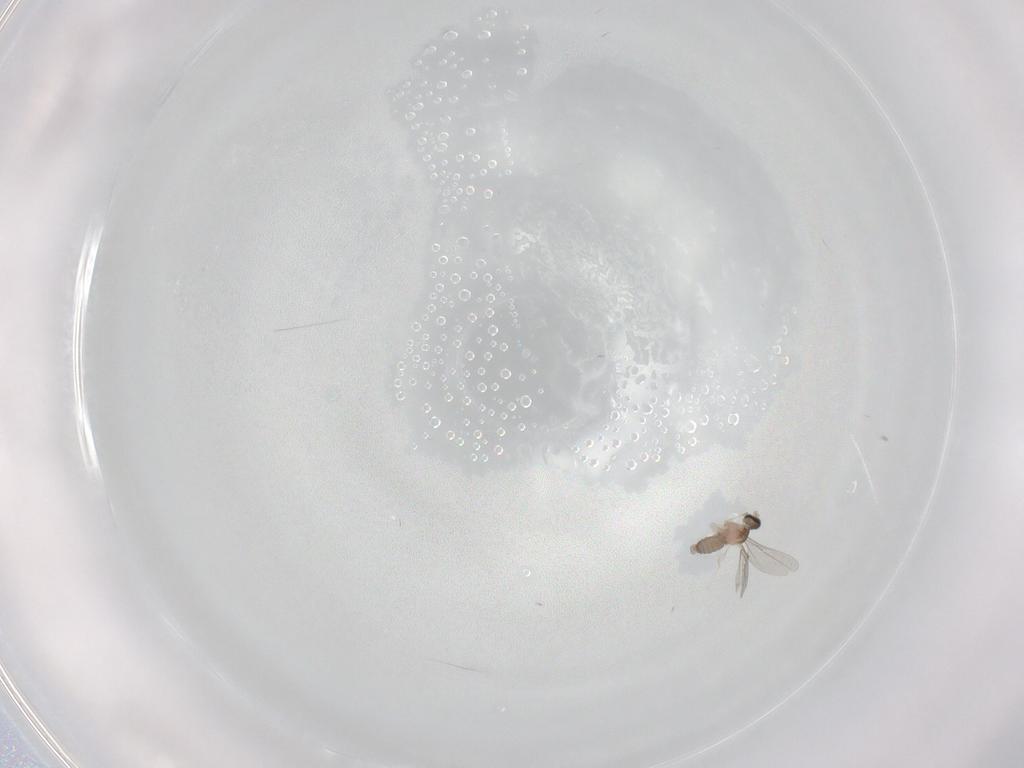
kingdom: Animalia
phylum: Arthropoda
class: Insecta
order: Diptera
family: Cecidomyiidae
